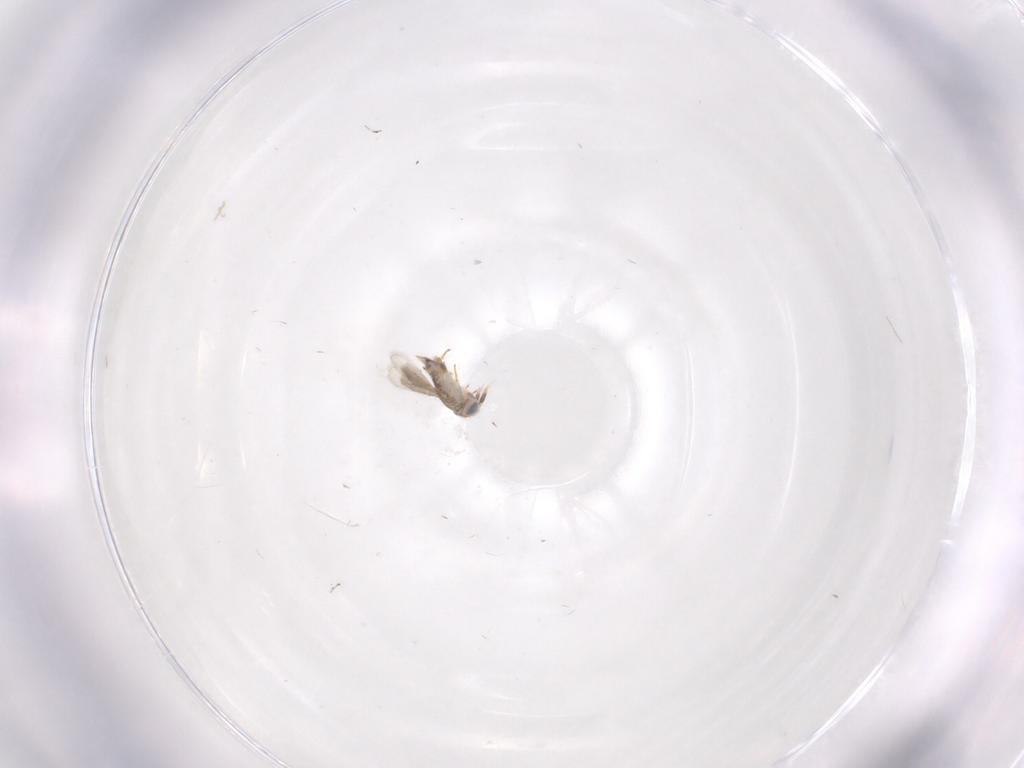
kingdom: Animalia
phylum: Arthropoda
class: Insecta
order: Hymenoptera
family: Aphelinidae
